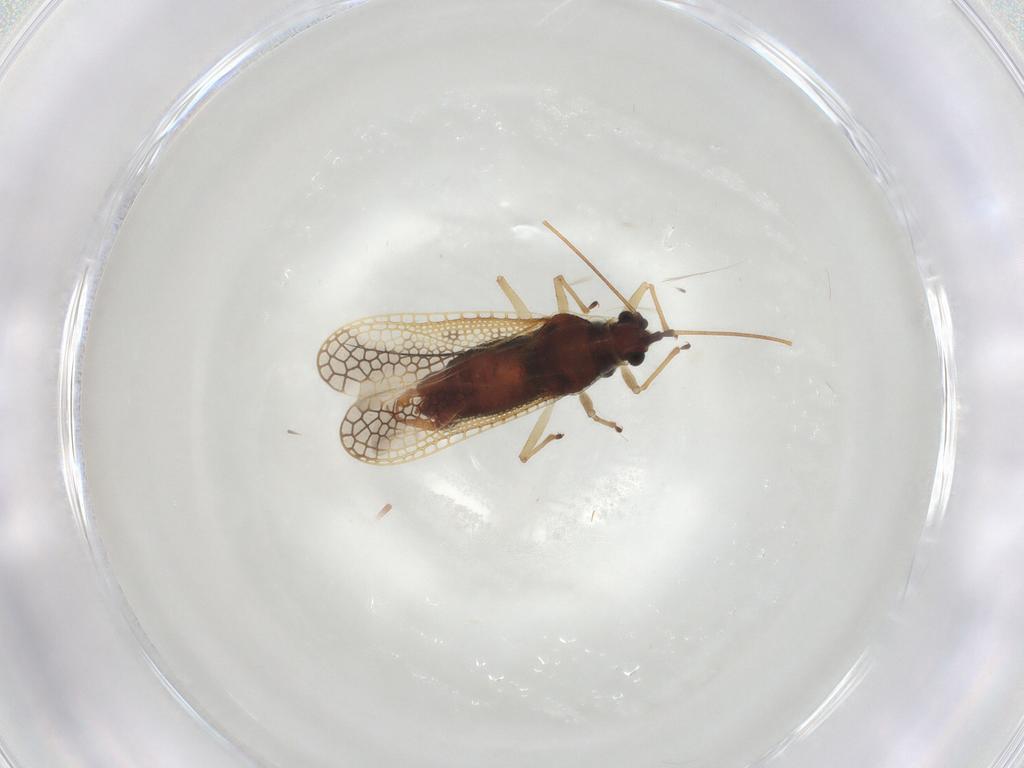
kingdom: Animalia
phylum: Arthropoda
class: Insecta
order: Hemiptera
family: Tingidae
